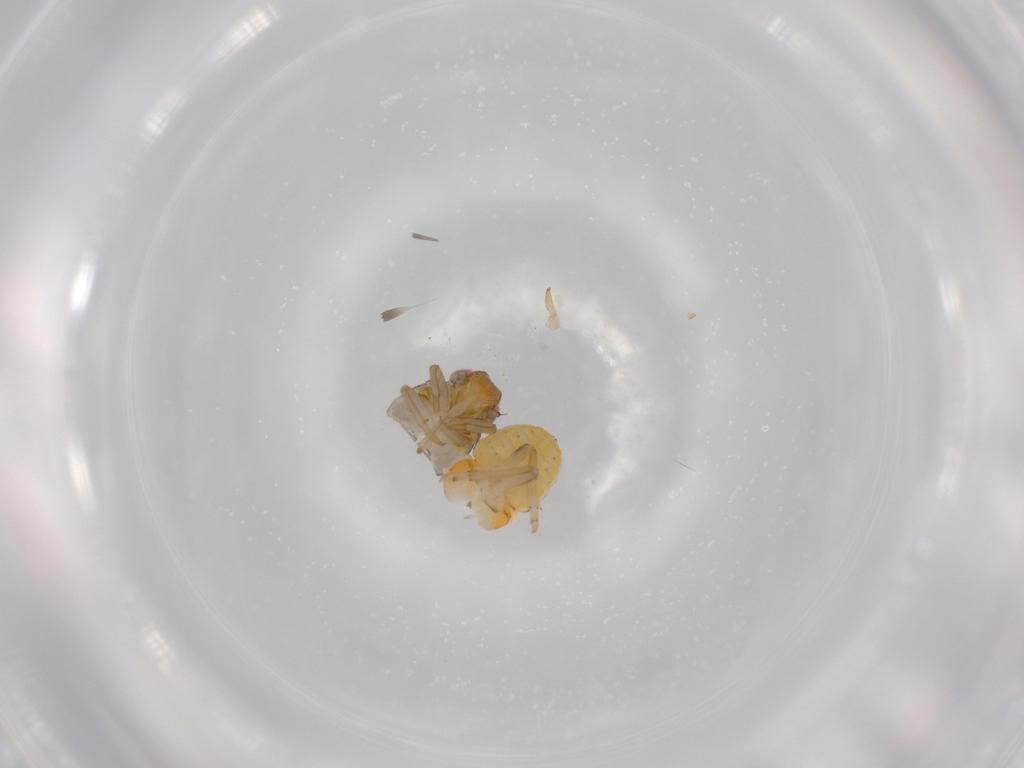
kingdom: Animalia
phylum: Arthropoda
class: Insecta
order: Hemiptera
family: Issidae
